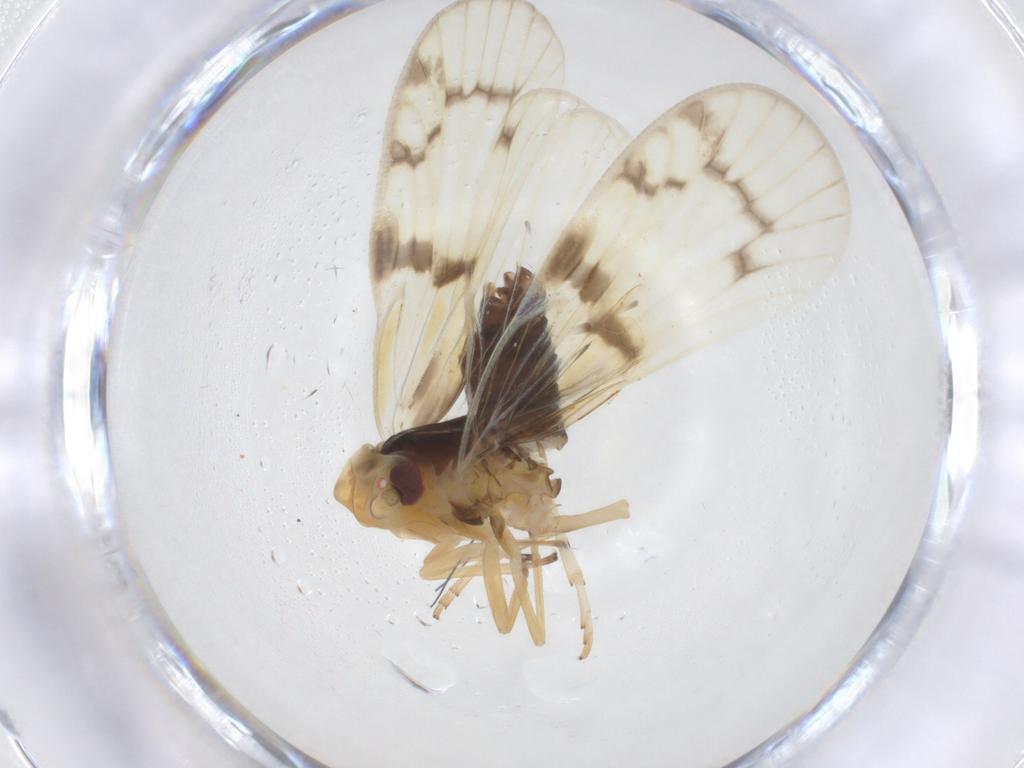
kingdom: Animalia
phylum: Arthropoda
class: Insecta
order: Hemiptera
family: Cixiidae
